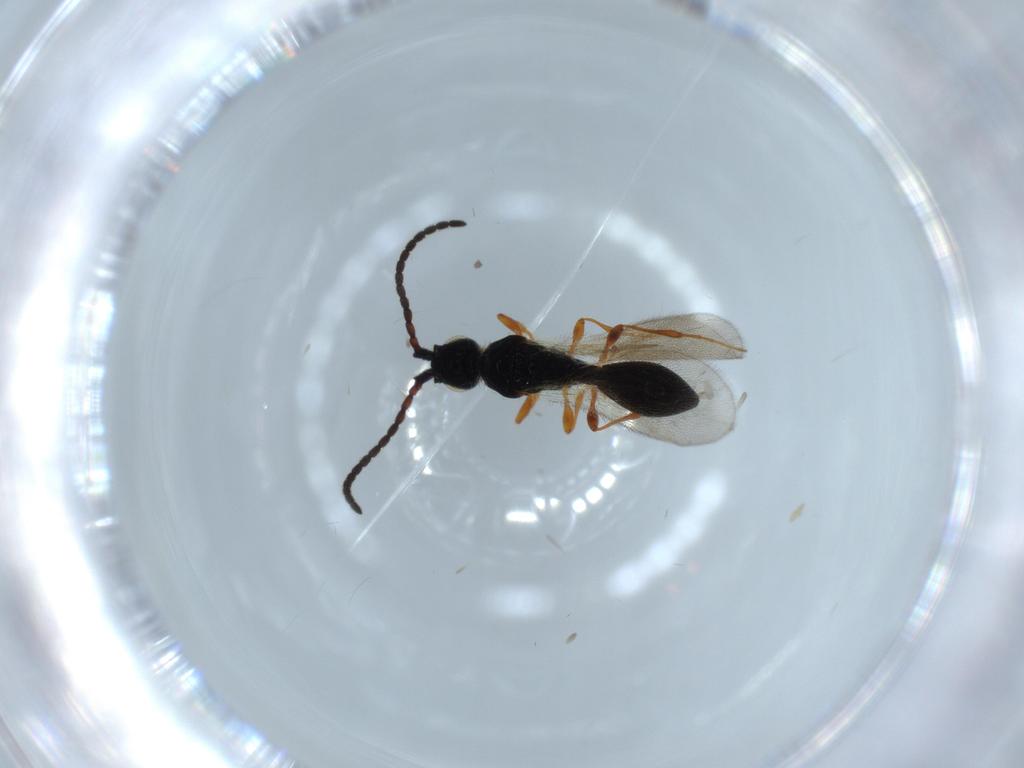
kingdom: Animalia
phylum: Arthropoda
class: Insecta
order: Hymenoptera
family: Diapriidae
